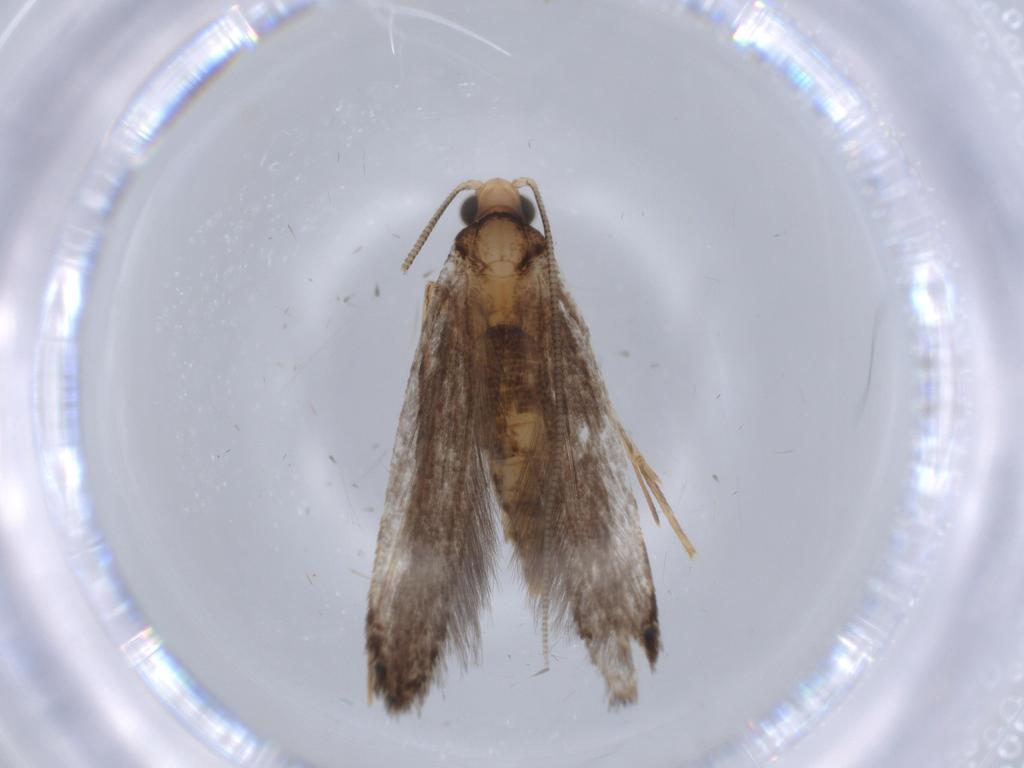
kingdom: Animalia
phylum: Arthropoda
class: Insecta
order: Lepidoptera
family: Tineidae
